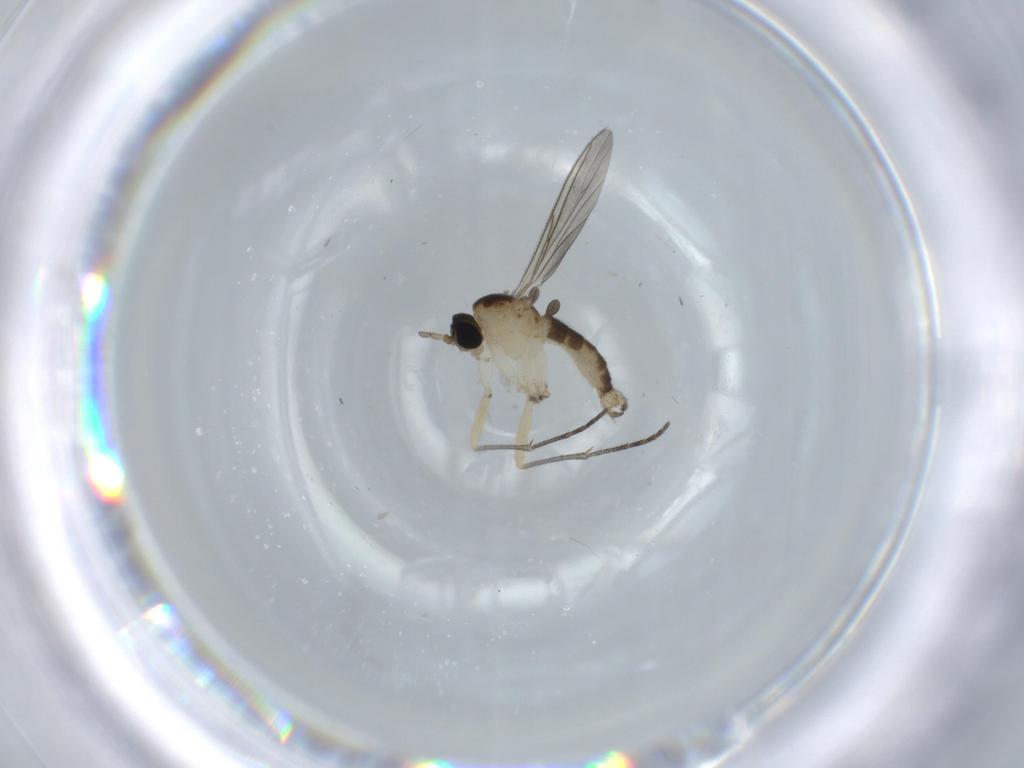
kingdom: Animalia
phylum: Arthropoda
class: Insecta
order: Diptera
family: Sciaridae
